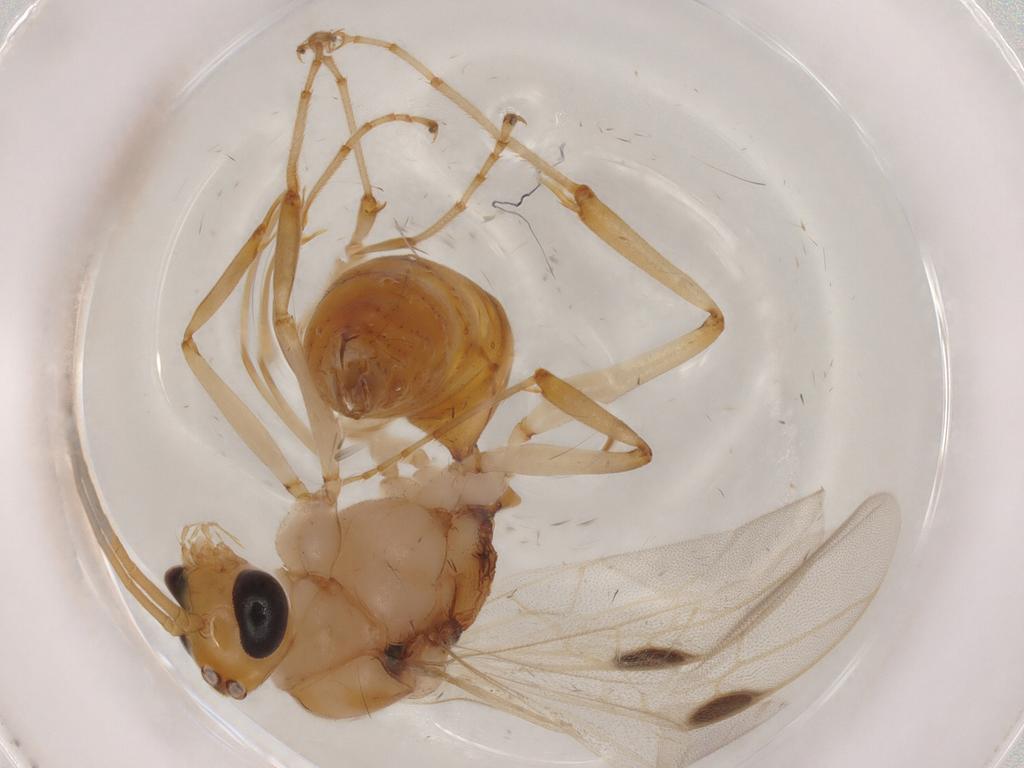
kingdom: Animalia
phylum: Arthropoda
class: Insecta
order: Hymenoptera
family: Formicidae
